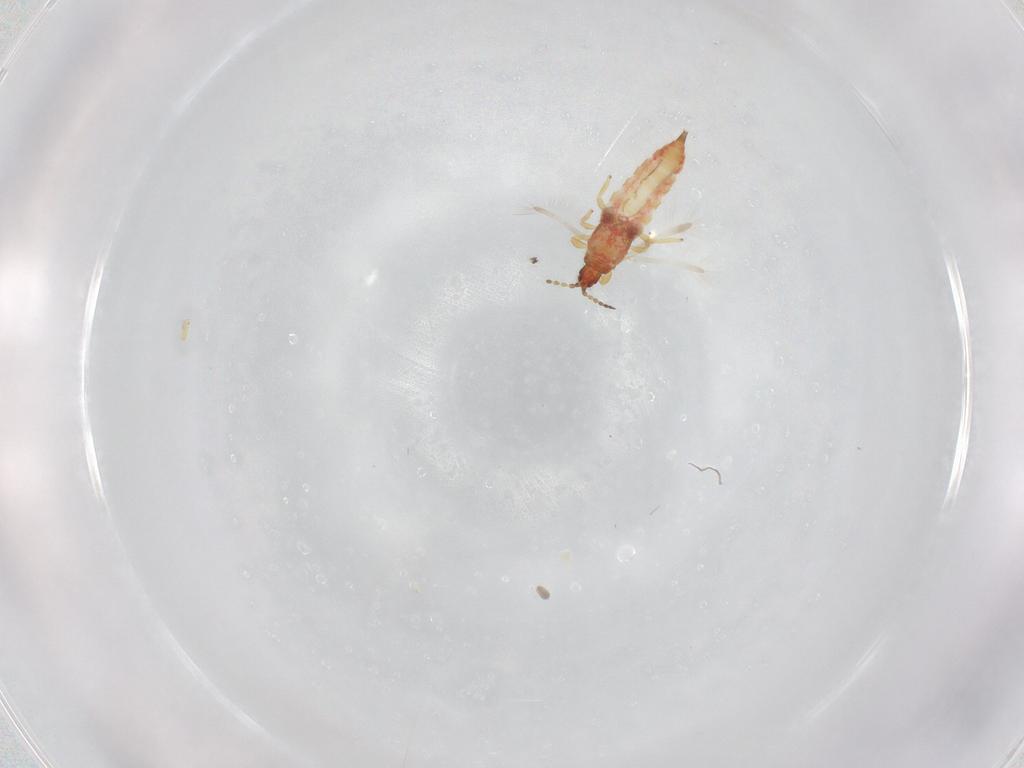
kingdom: Animalia
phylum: Arthropoda
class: Insecta
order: Thysanoptera
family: Phlaeothripidae
